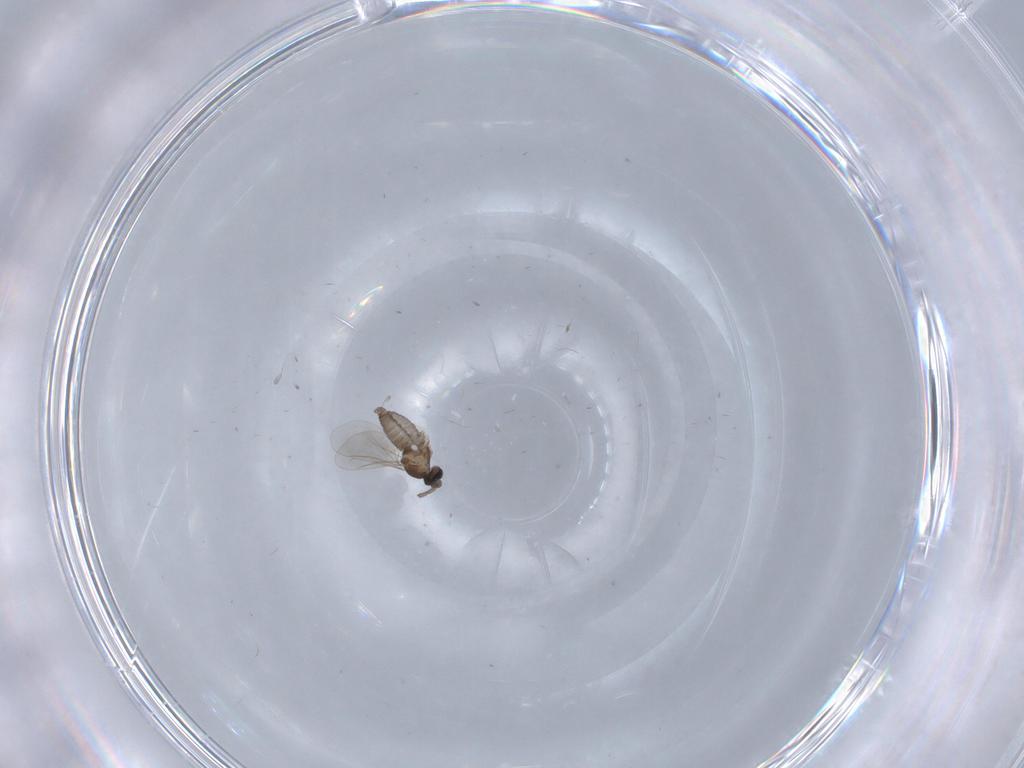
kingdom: Animalia
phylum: Arthropoda
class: Insecta
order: Diptera
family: Cecidomyiidae
